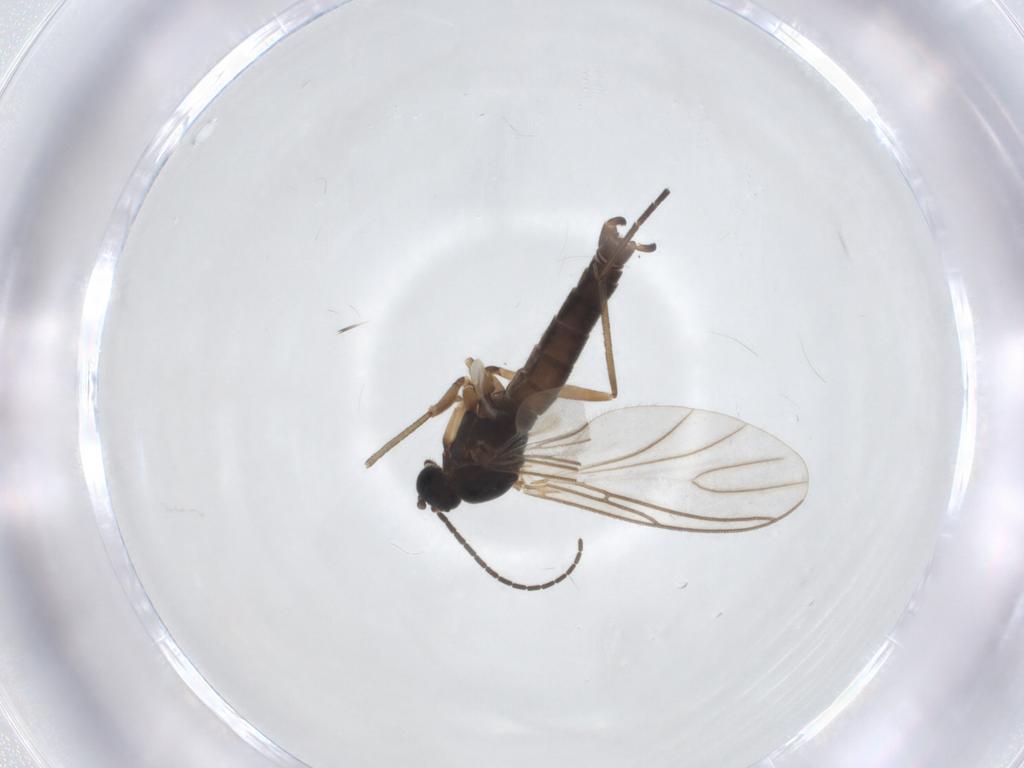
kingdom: Animalia
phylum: Arthropoda
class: Insecta
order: Diptera
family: Sciaridae
